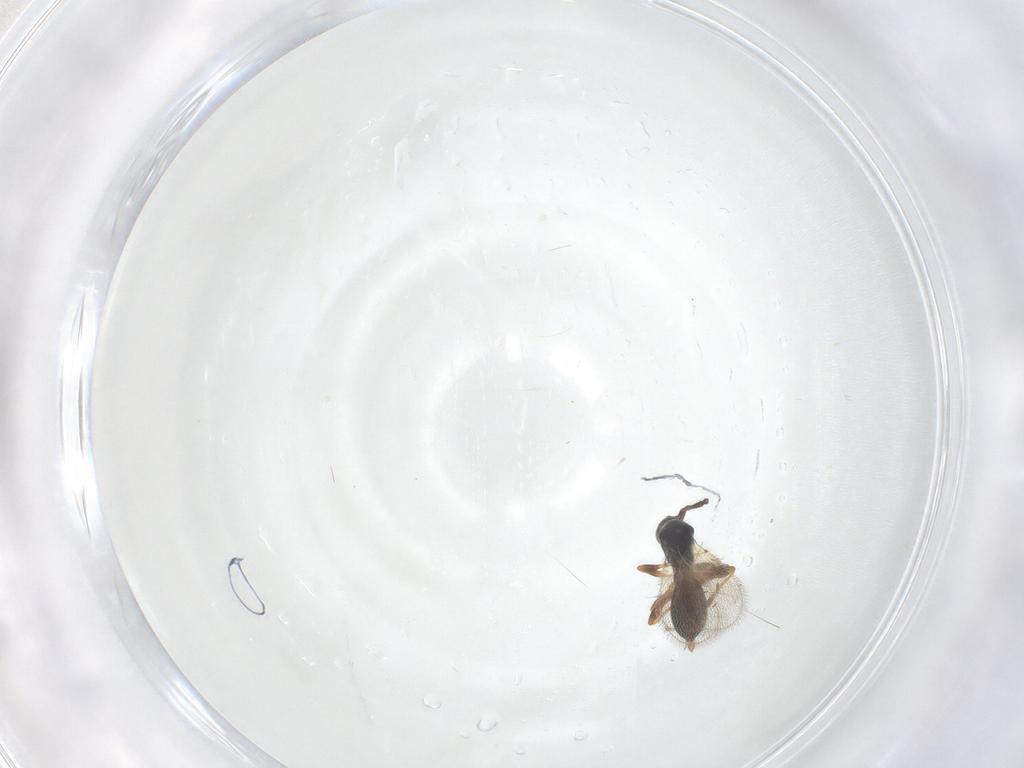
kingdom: Animalia
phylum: Arthropoda
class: Insecta
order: Hymenoptera
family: Diapriidae
